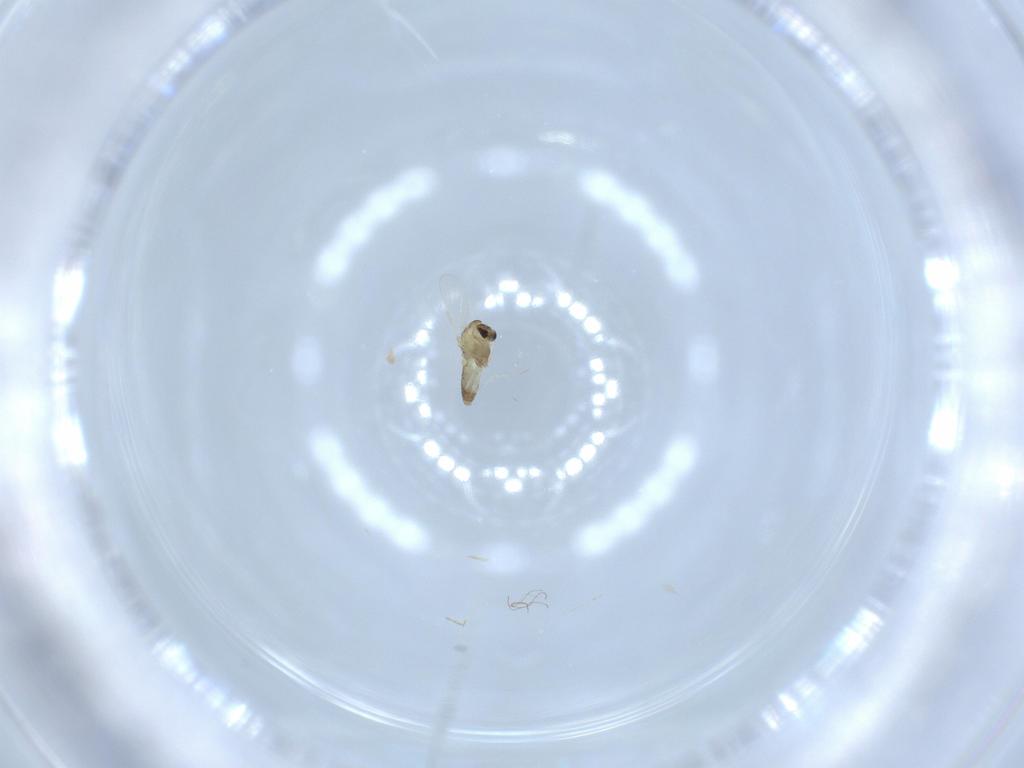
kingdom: Animalia
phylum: Arthropoda
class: Insecta
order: Diptera
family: Chironomidae
